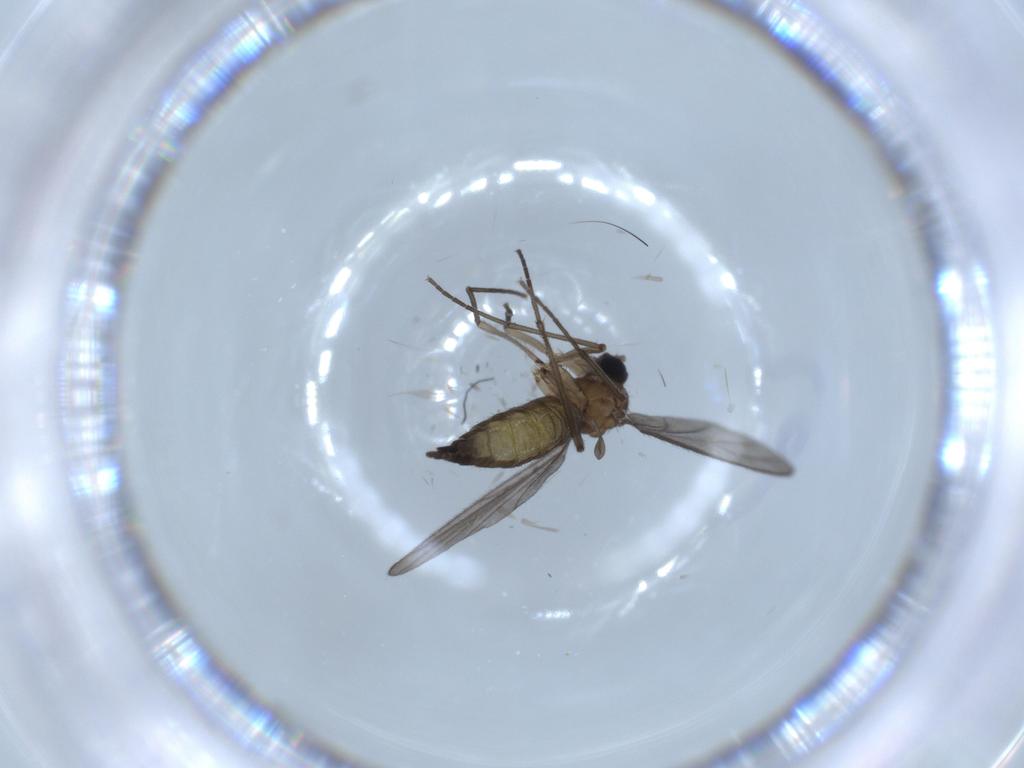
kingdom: Animalia
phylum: Arthropoda
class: Insecta
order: Diptera
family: Sciaridae
